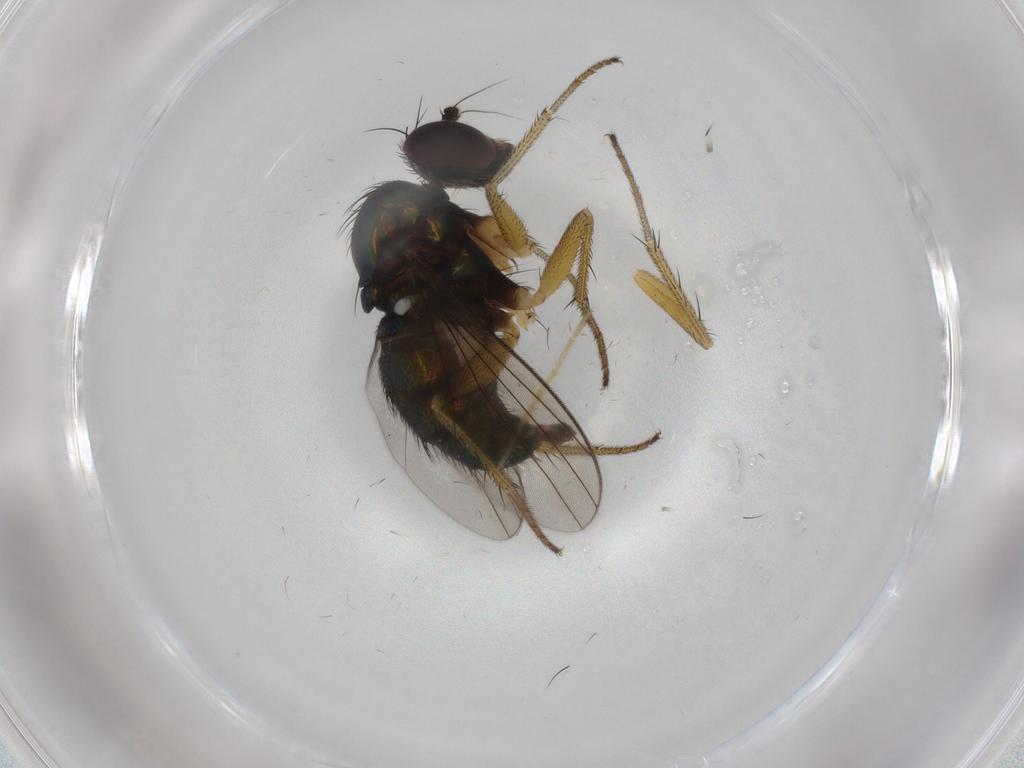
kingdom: Animalia
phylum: Arthropoda
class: Insecta
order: Diptera
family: Dolichopodidae
